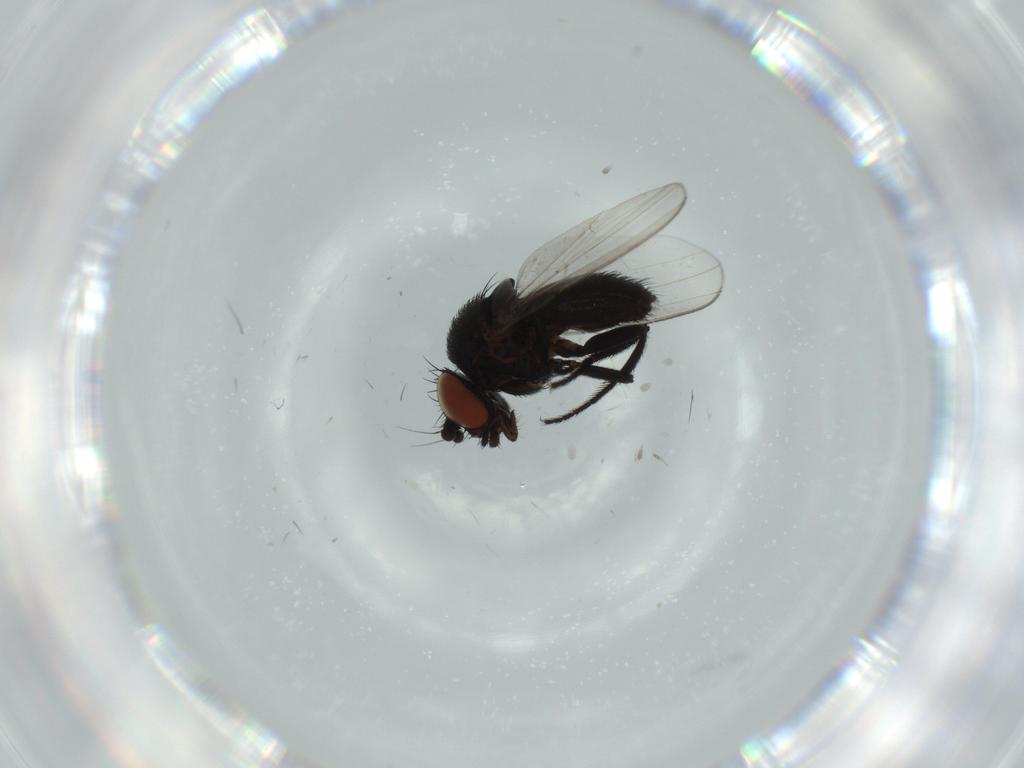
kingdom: Animalia
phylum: Arthropoda
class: Insecta
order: Diptera
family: Milichiidae
